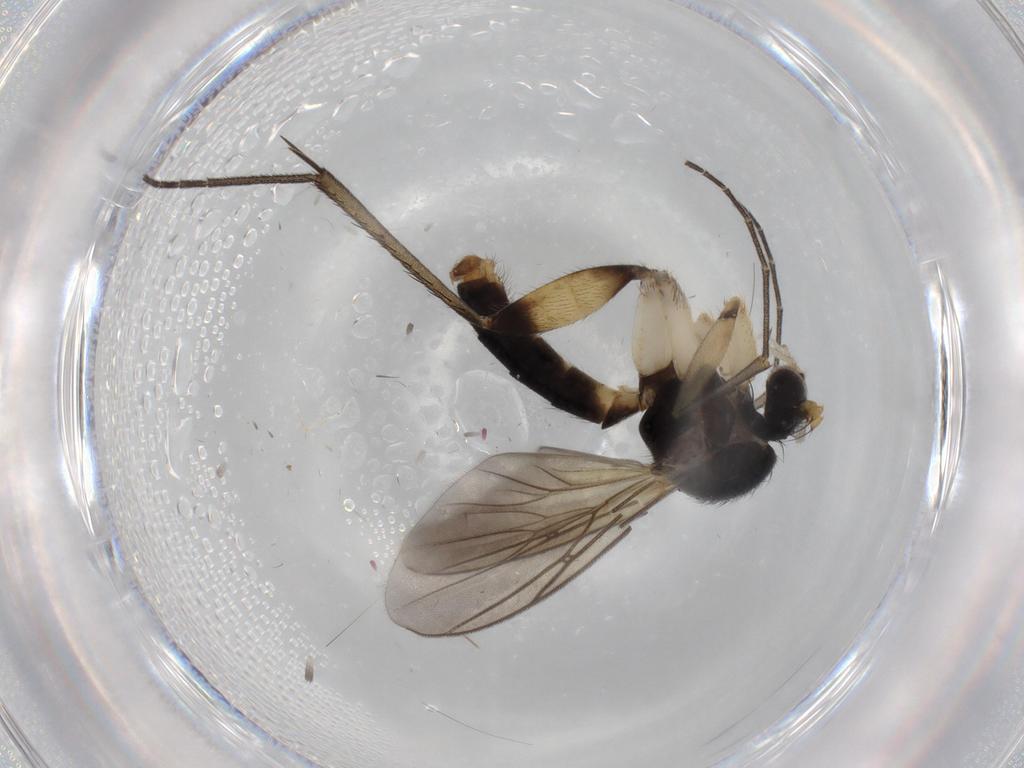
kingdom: Animalia
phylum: Arthropoda
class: Insecta
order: Diptera
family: Phoridae
